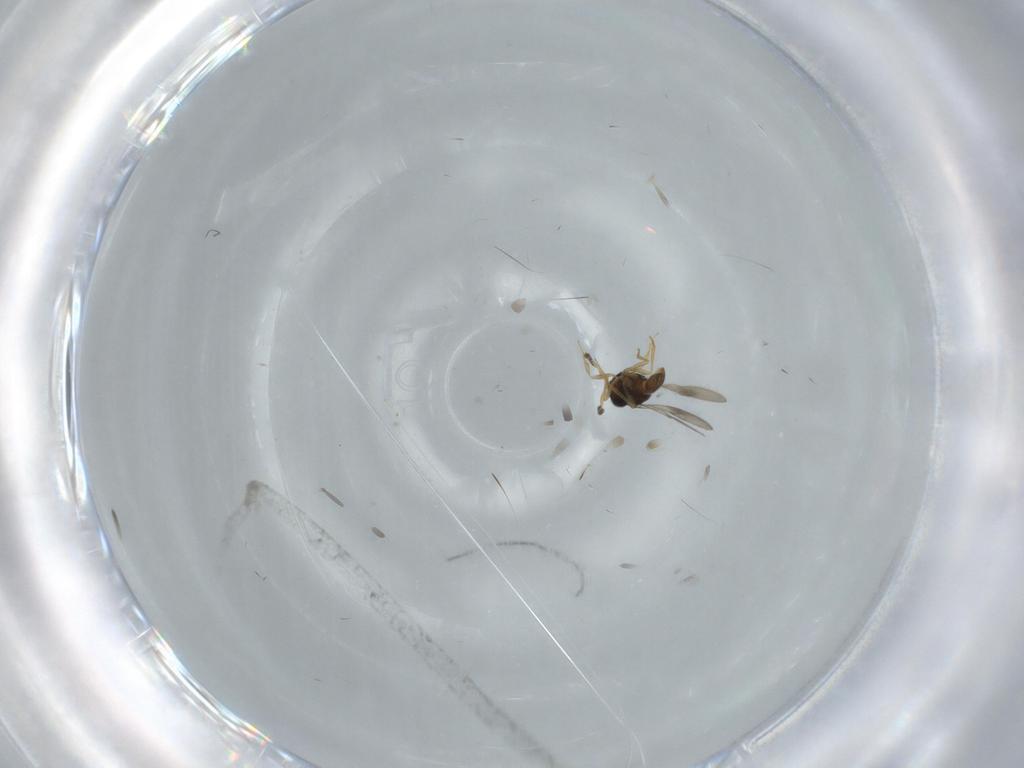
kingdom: Animalia
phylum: Arthropoda
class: Insecta
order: Hymenoptera
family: Scelionidae
